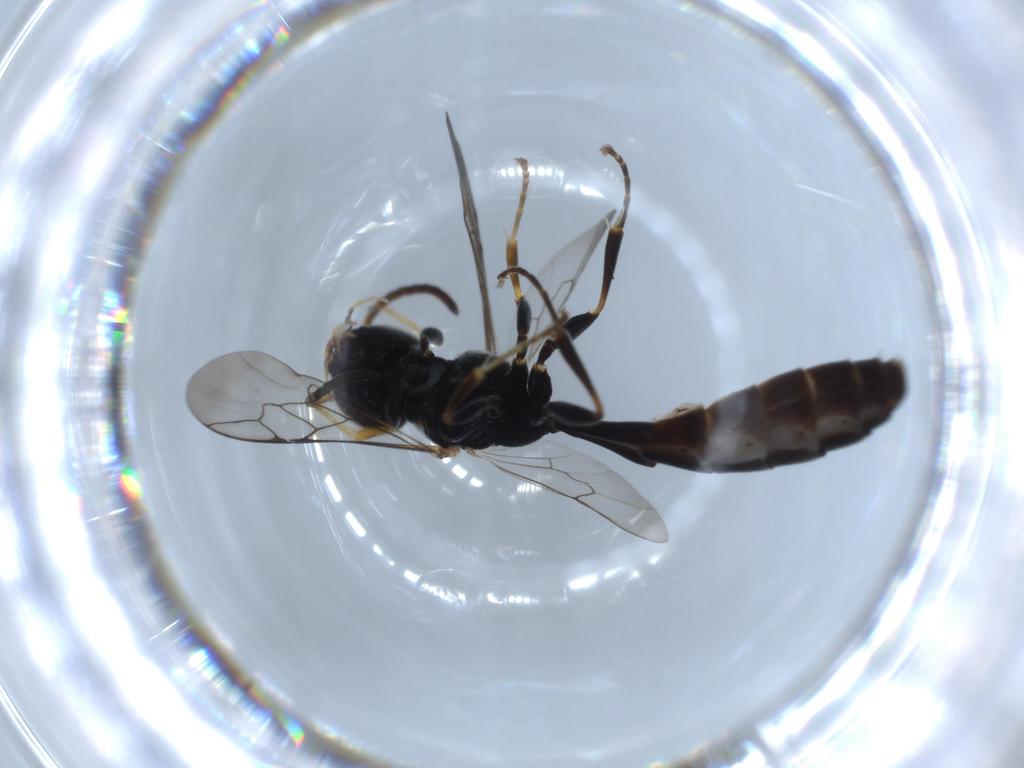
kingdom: Animalia
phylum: Arthropoda
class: Insecta
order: Hymenoptera
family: Crabronidae
